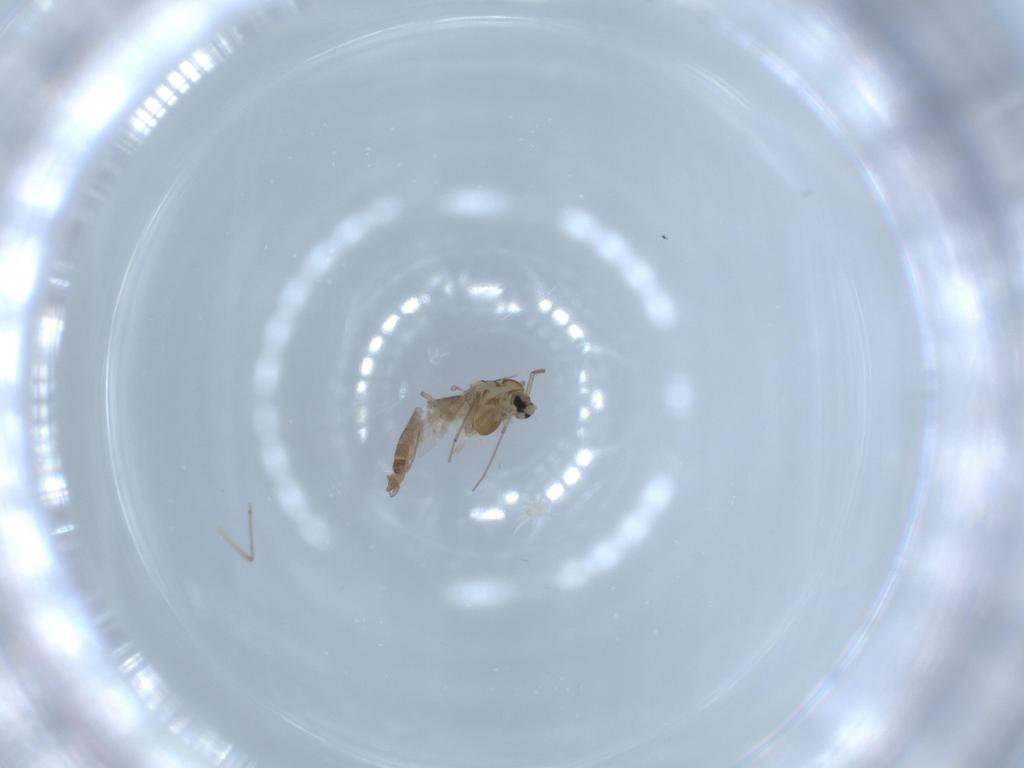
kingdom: Animalia
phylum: Arthropoda
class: Insecta
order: Diptera
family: Chironomidae
